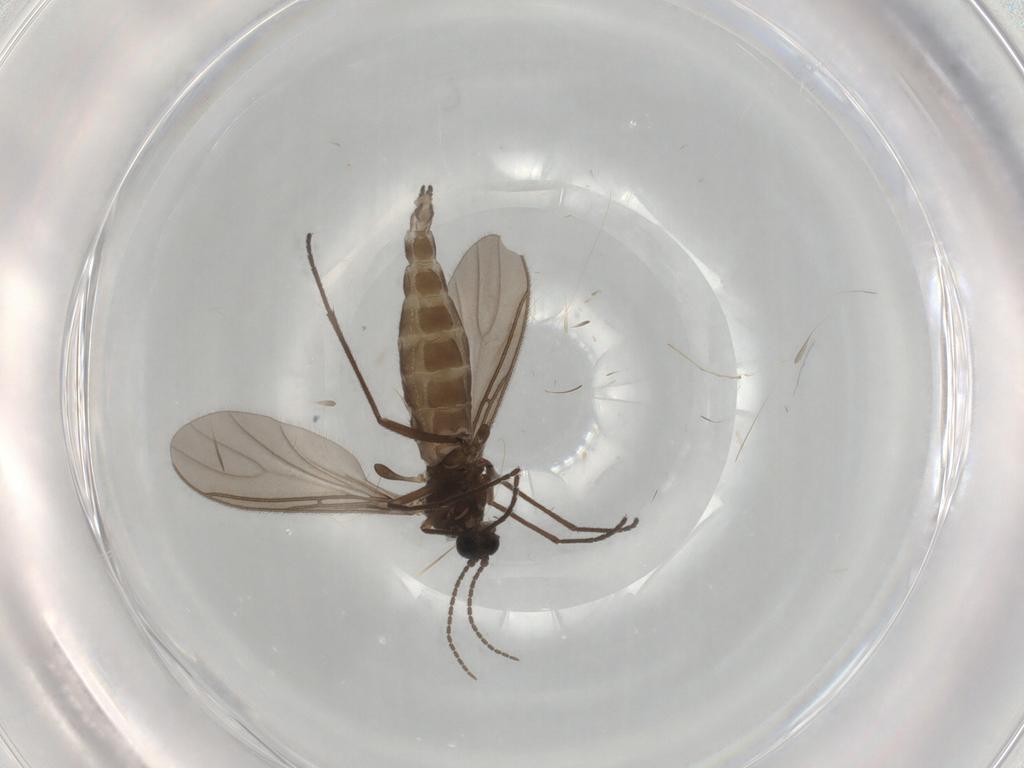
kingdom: Animalia
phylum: Arthropoda
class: Insecta
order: Diptera
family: Sciaridae
